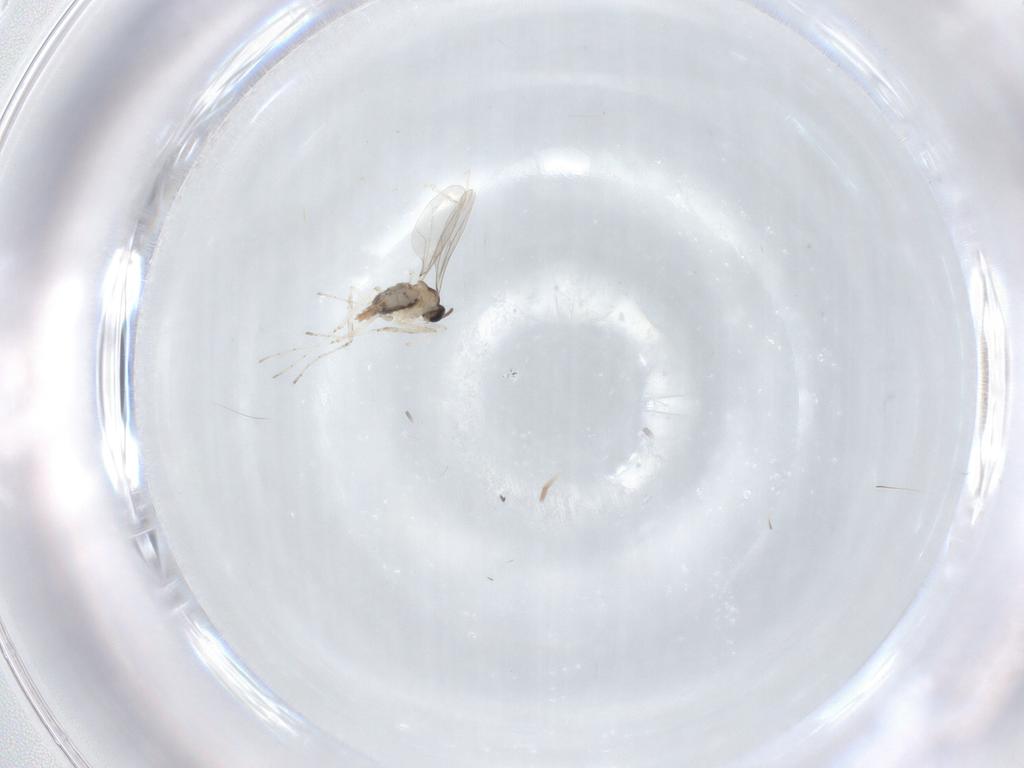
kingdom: Animalia
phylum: Arthropoda
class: Insecta
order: Diptera
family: Cecidomyiidae
